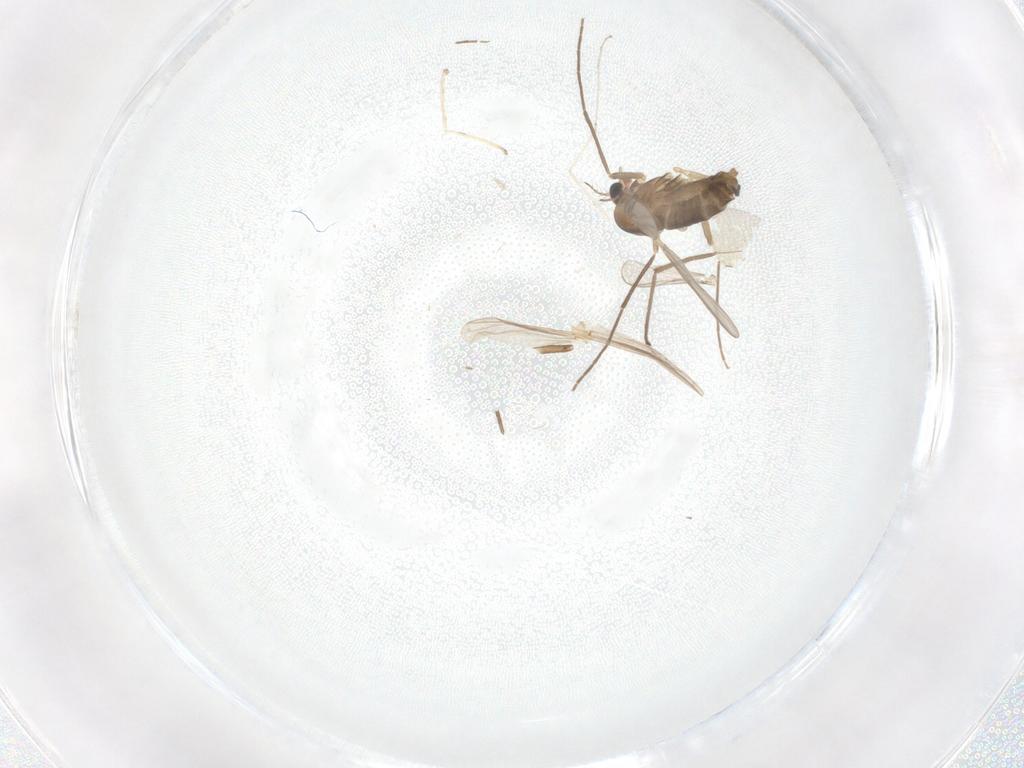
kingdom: Animalia
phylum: Arthropoda
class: Insecta
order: Diptera
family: Chironomidae
